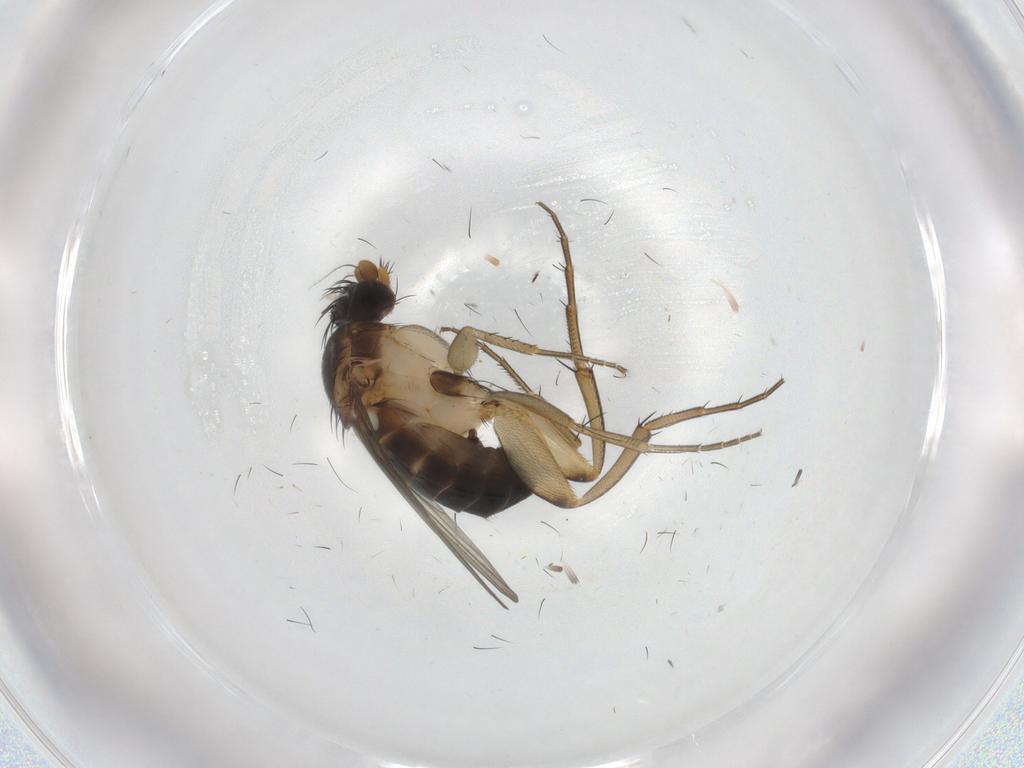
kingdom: Animalia
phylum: Arthropoda
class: Insecta
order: Diptera
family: Phoridae
